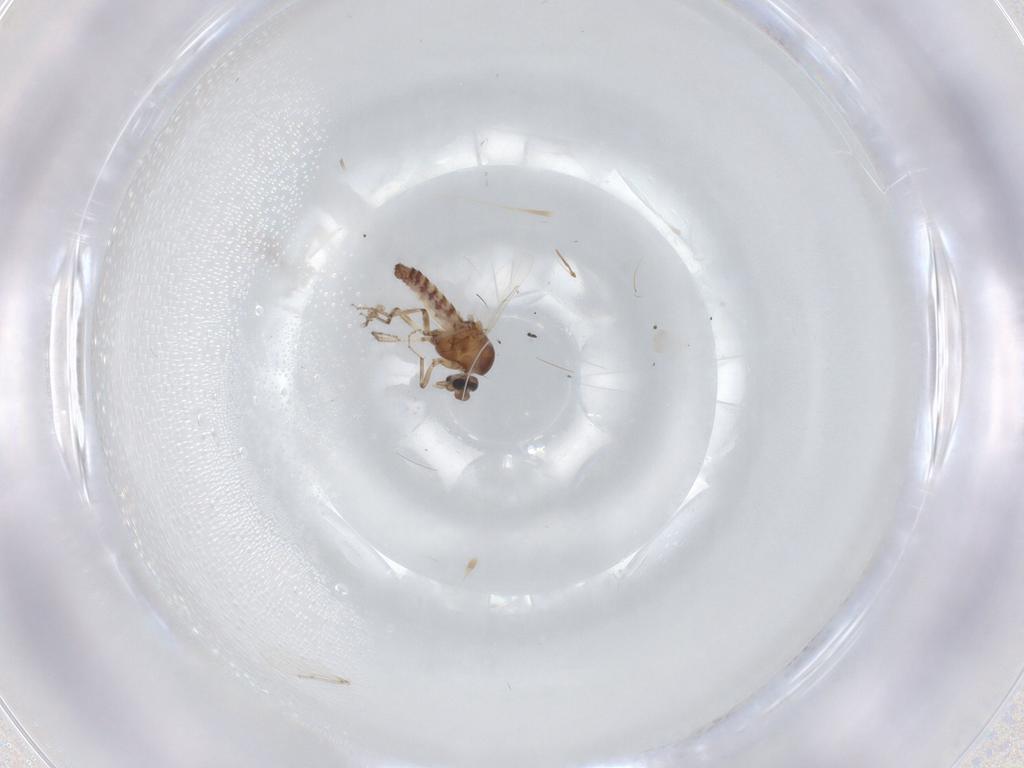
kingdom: Animalia
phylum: Arthropoda
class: Insecta
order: Diptera
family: Ceratopogonidae
